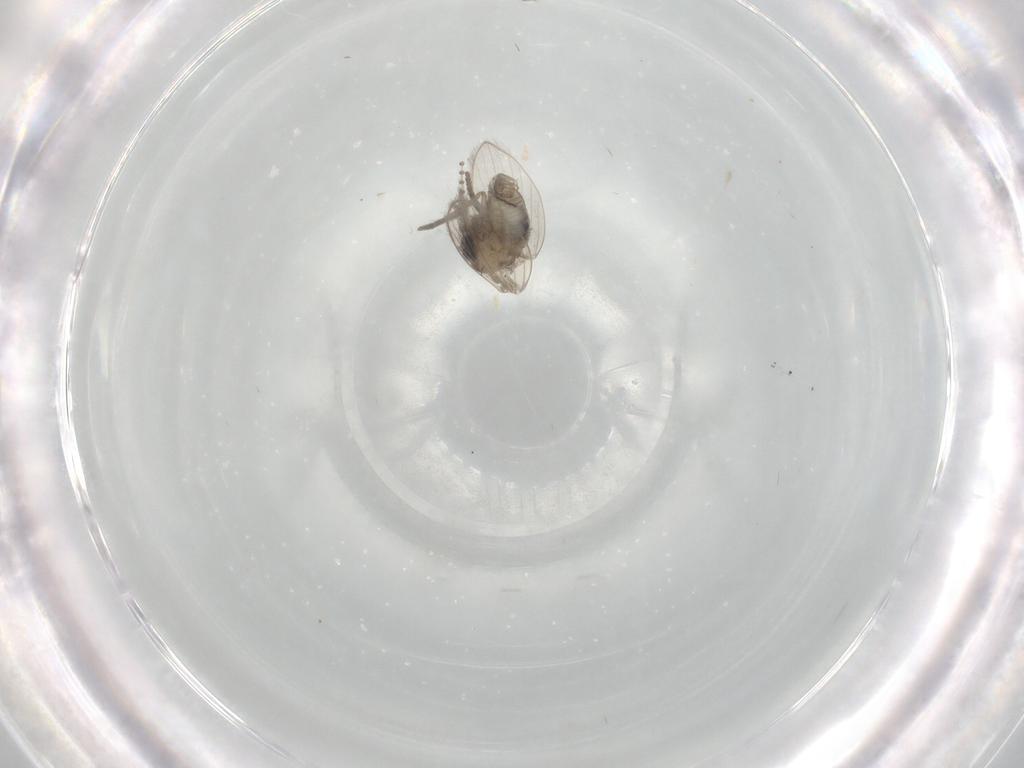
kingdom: Animalia
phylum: Arthropoda
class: Insecta
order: Diptera
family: Psychodidae
